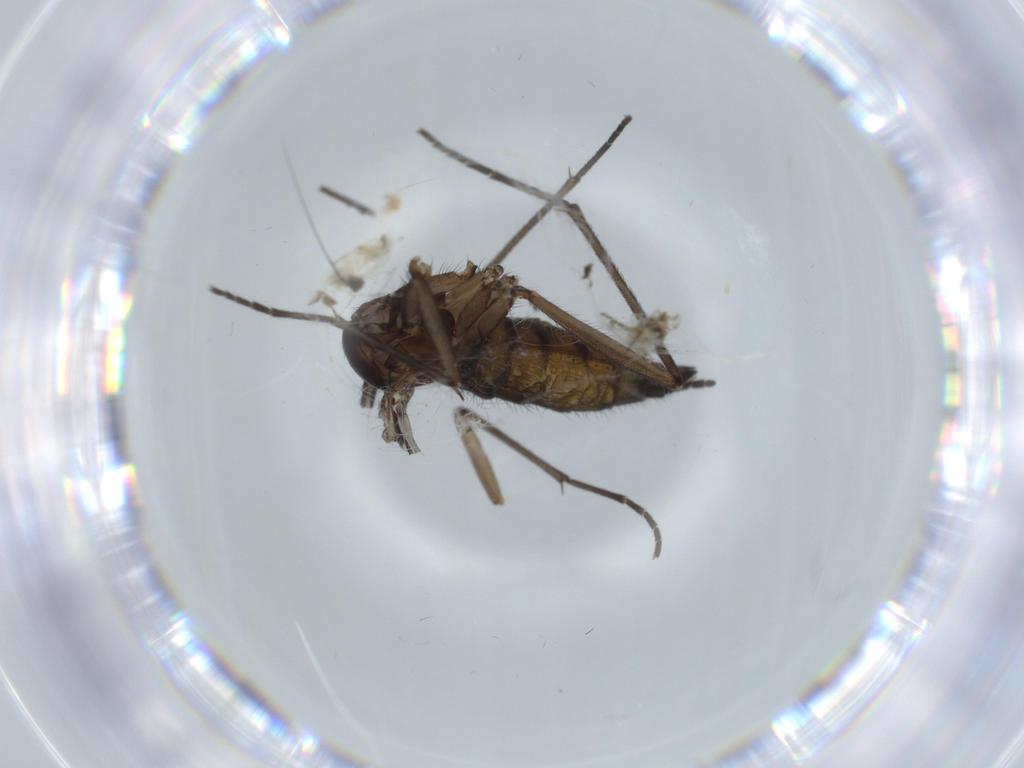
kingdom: Animalia
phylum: Arthropoda
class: Insecta
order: Diptera
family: Sciaridae
